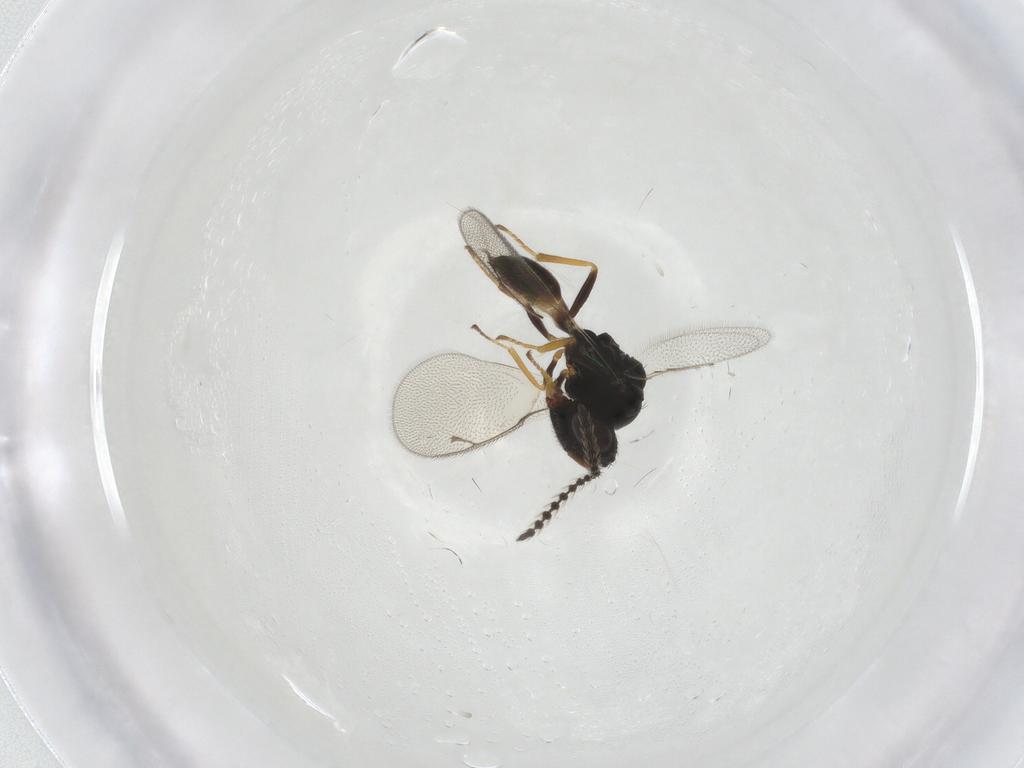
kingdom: Animalia
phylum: Arthropoda
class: Insecta
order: Hymenoptera
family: Pteromalidae
